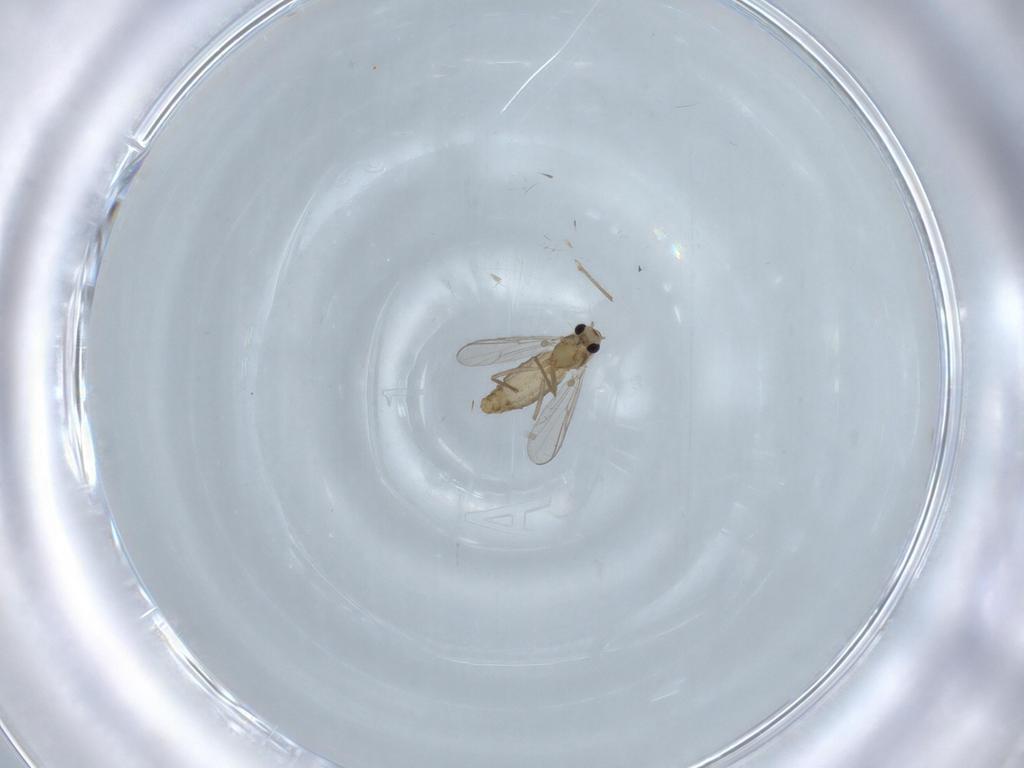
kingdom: Animalia
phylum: Arthropoda
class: Insecta
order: Diptera
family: Chironomidae
